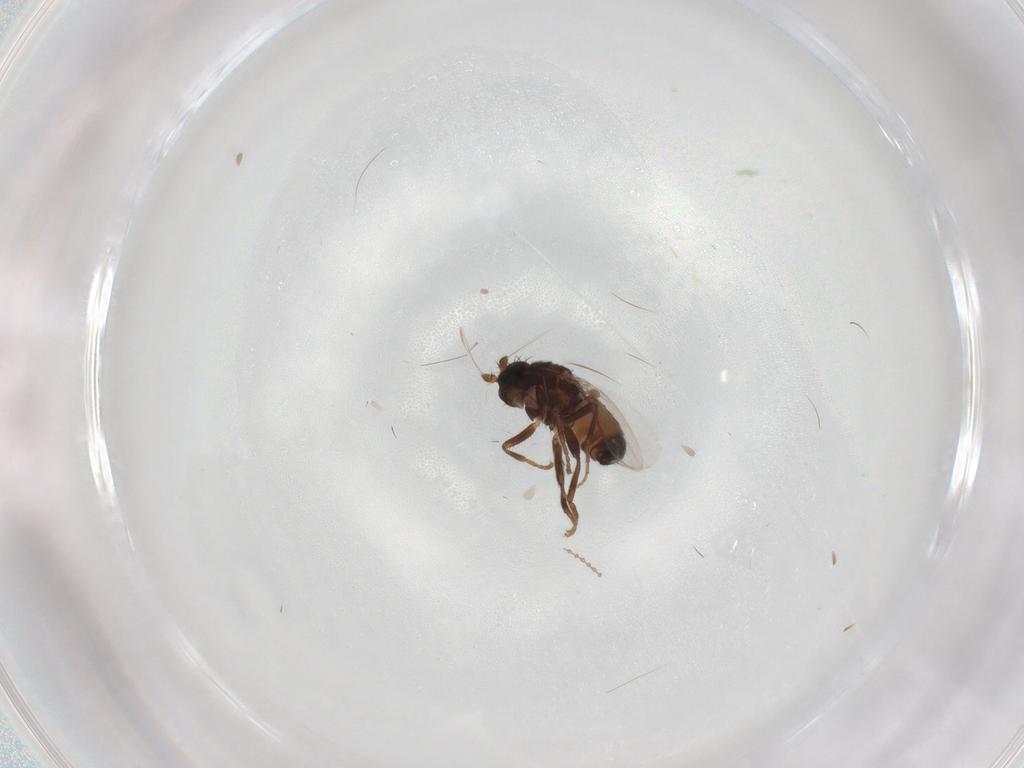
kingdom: Animalia
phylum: Arthropoda
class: Insecta
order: Diptera
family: Sphaeroceridae
